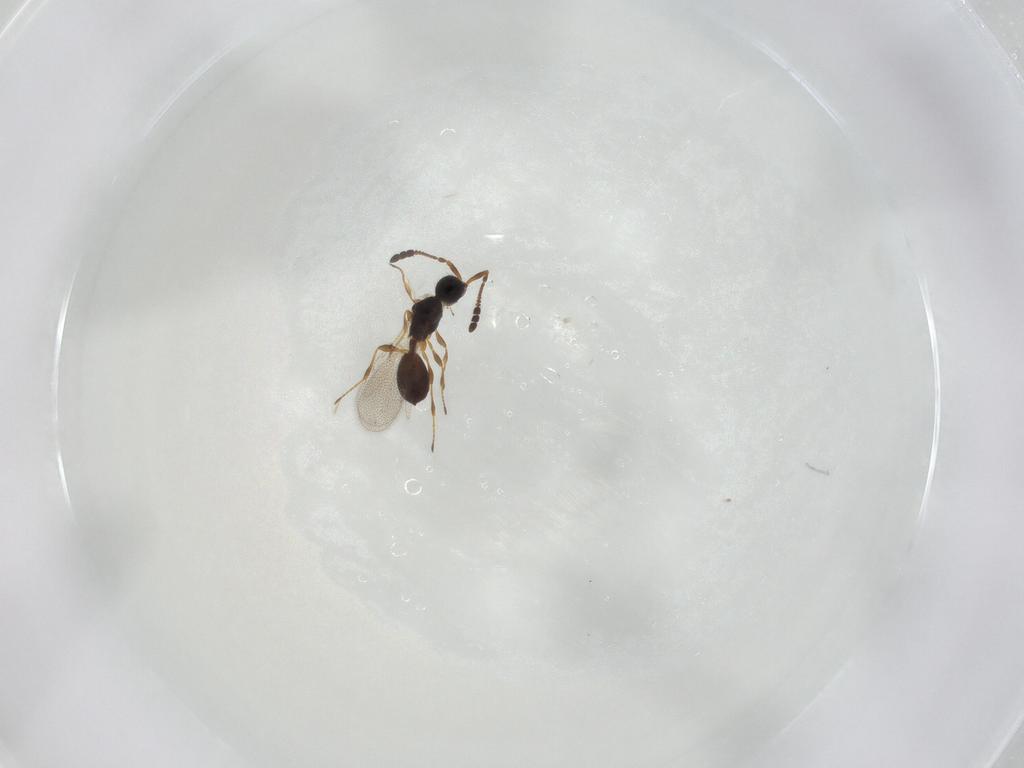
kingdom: Animalia
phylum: Arthropoda
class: Insecta
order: Hymenoptera
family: Diapriidae
